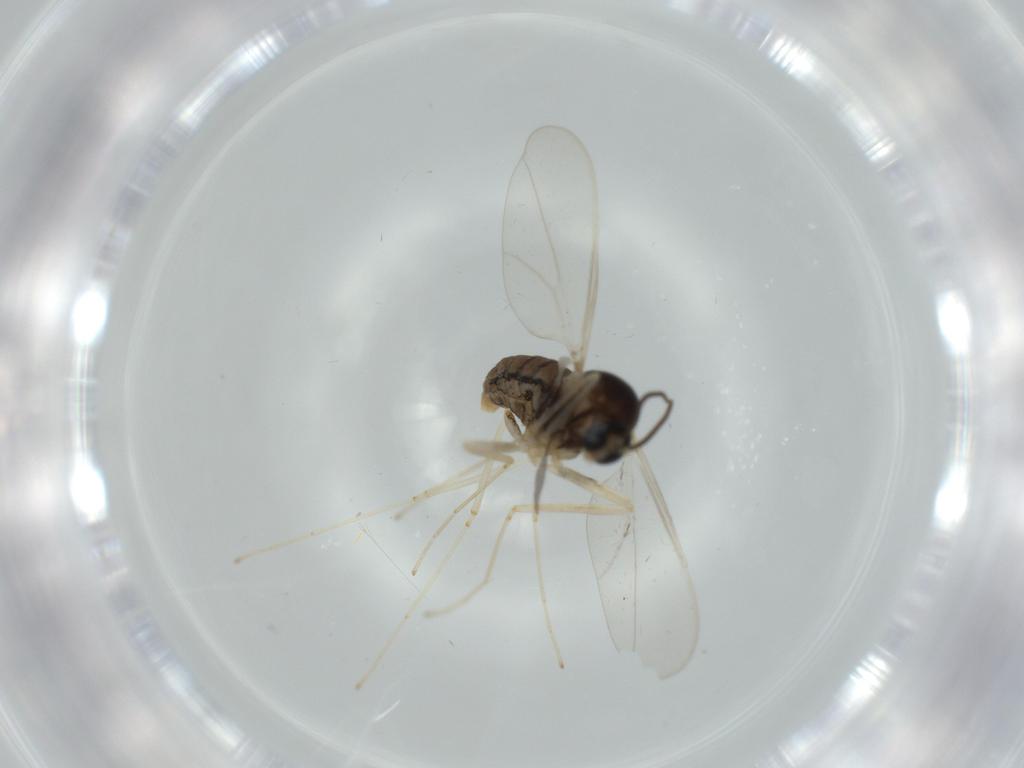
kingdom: Animalia
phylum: Arthropoda
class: Insecta
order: Diptera
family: Cecidomyiidae
